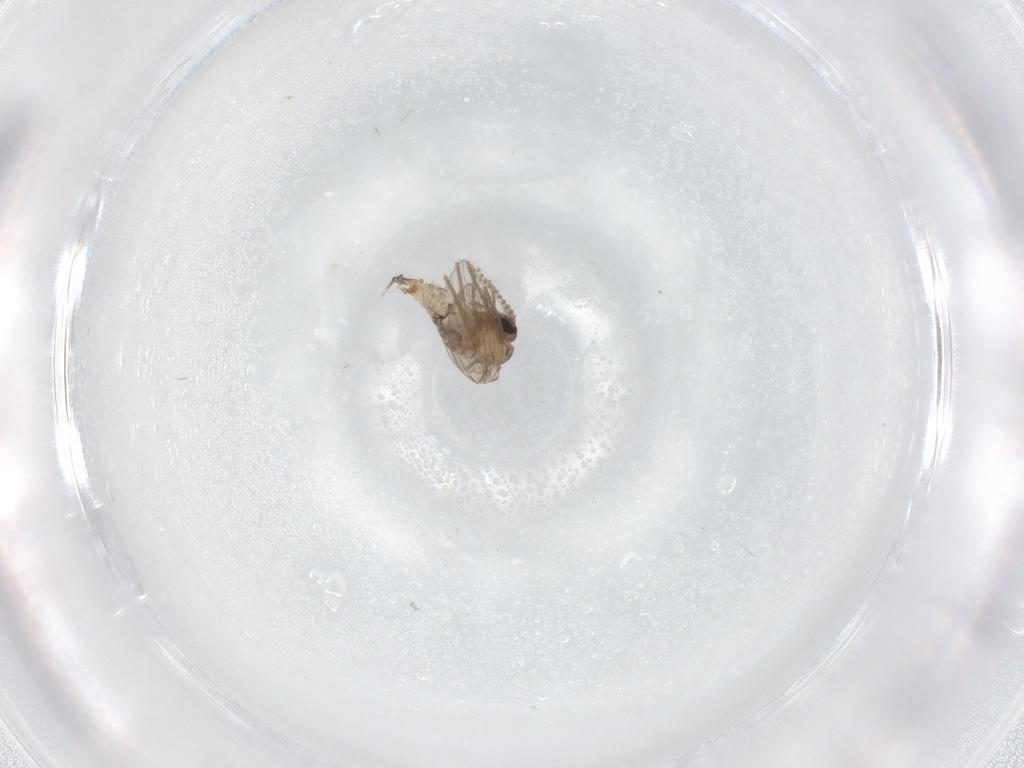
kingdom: Animalia
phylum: Arthropoda
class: Insecta
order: Diptera
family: Psychodidae
